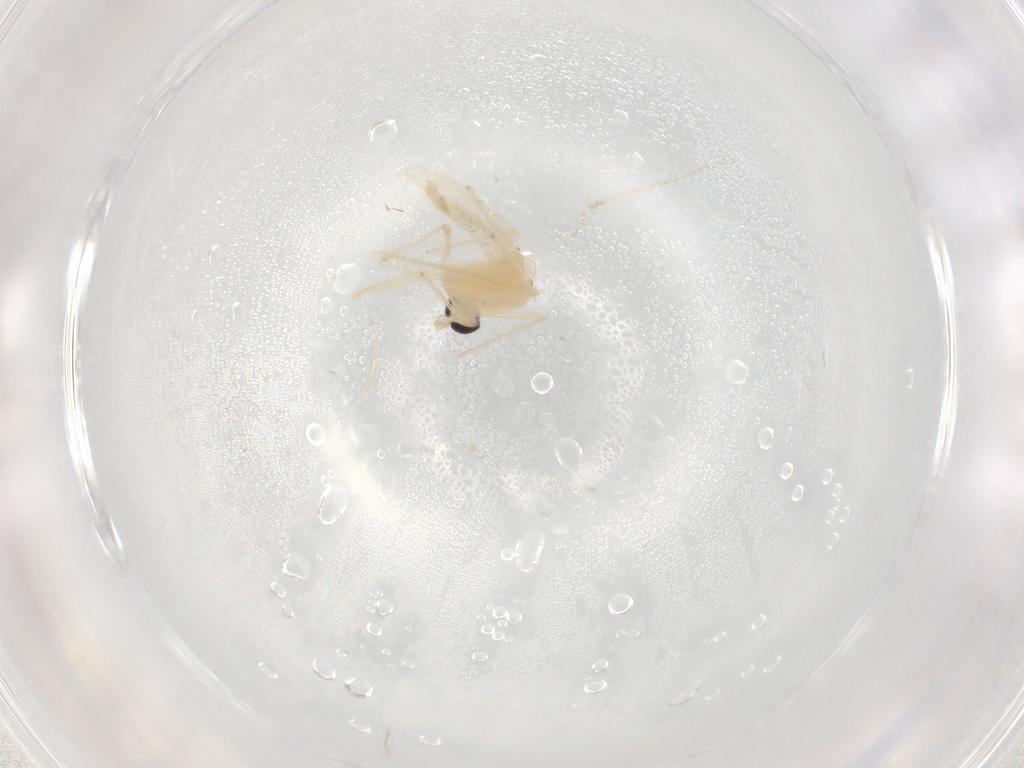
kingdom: Animalia
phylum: Arthropoda
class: Insecta
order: Diptera
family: Chironomidae
